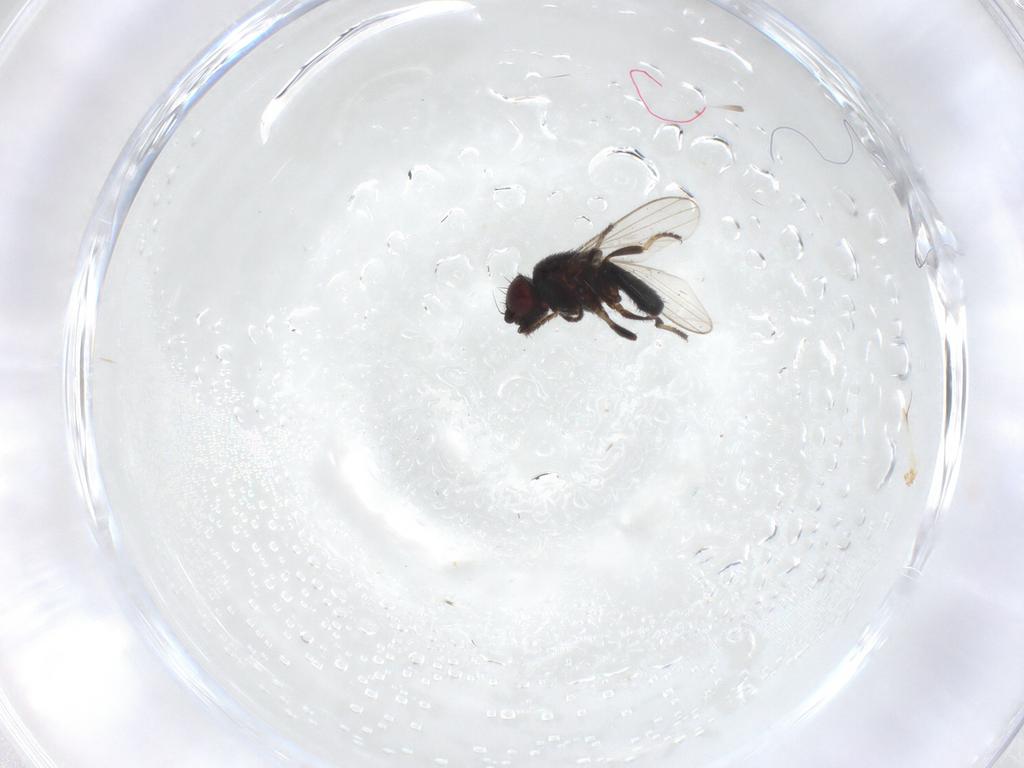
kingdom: Animalia
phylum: Arthropoda
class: Insecta
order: Diptera
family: Milichiidae
